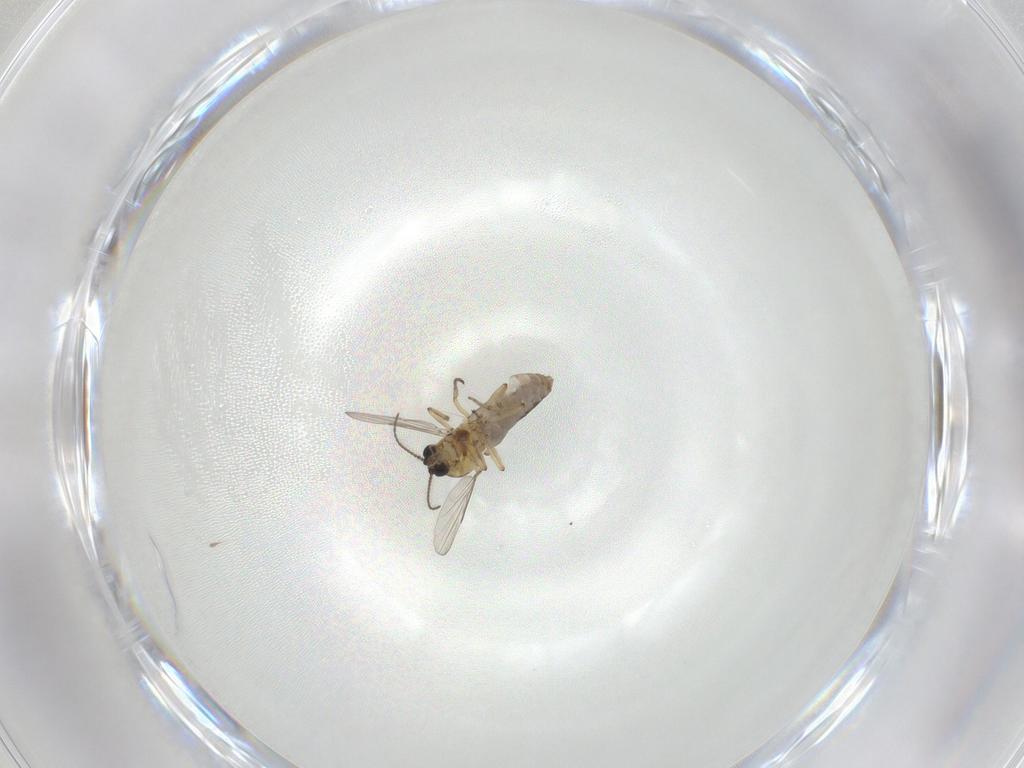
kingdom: Animalia
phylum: Arthropoda
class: Insecta
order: Diptera
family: Ceratopogonidae
